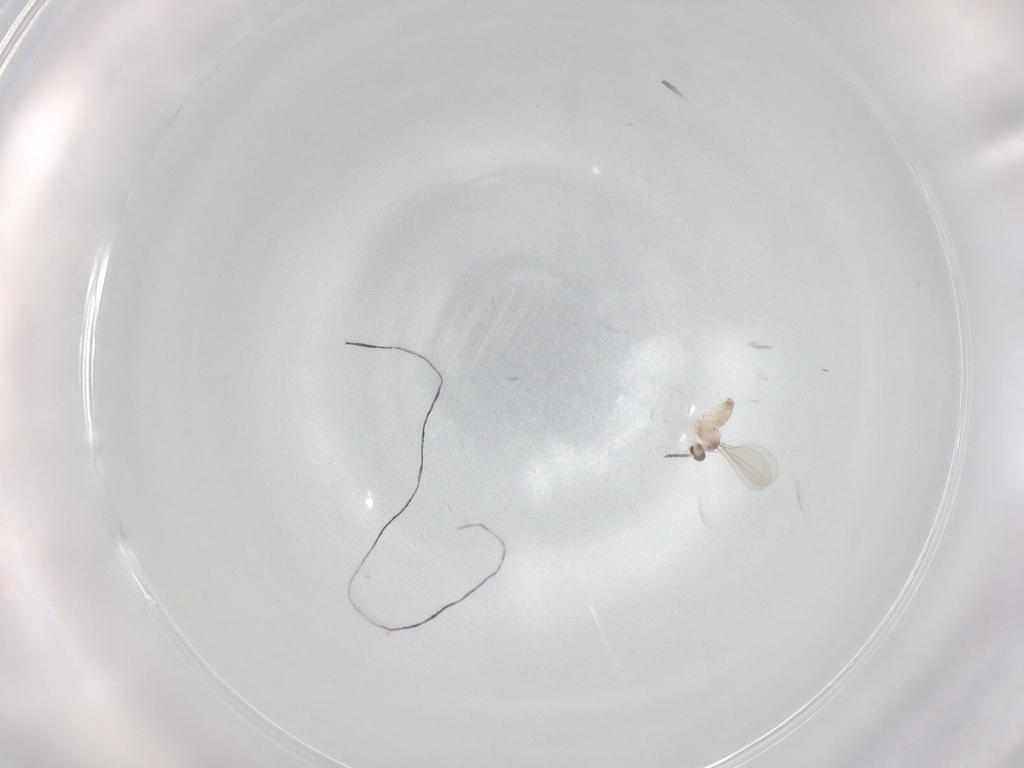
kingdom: Animalia
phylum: Arthropoda
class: Insecta
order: Diptera
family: Cecidomyiidae
